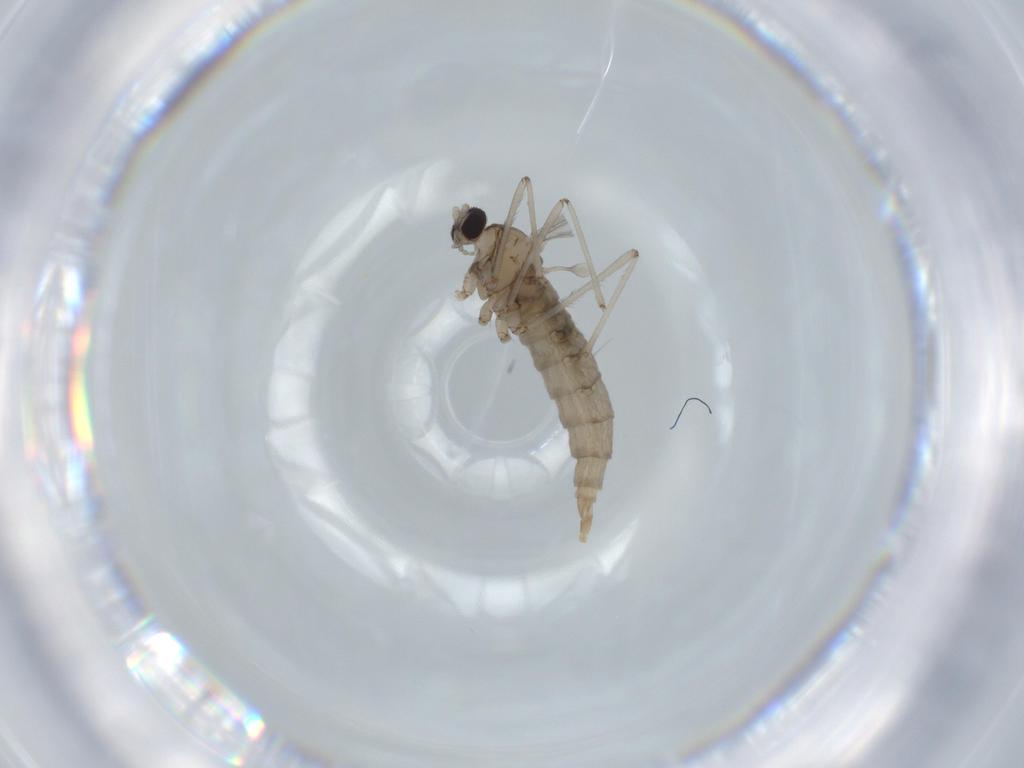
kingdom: Animalia
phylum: Arthropoda
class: Insecta
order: Diptera
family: Cecidomyiidae
